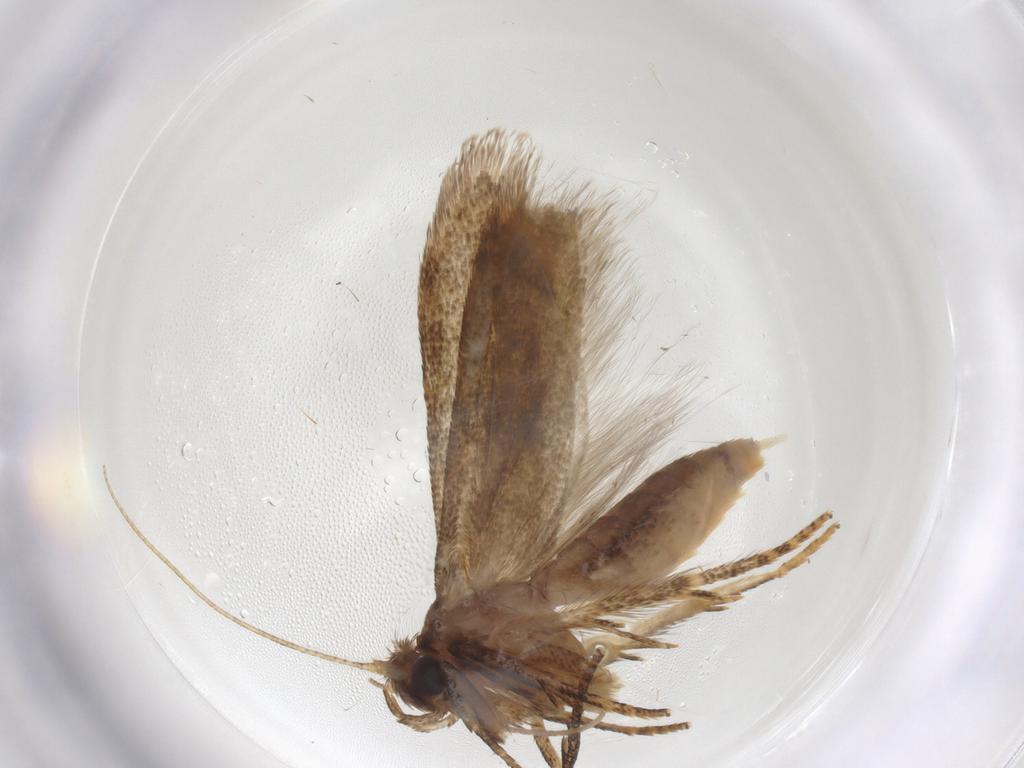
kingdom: Animalia
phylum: Arthropoda
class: Insecta
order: Lepidoptera
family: Blastobasidae
